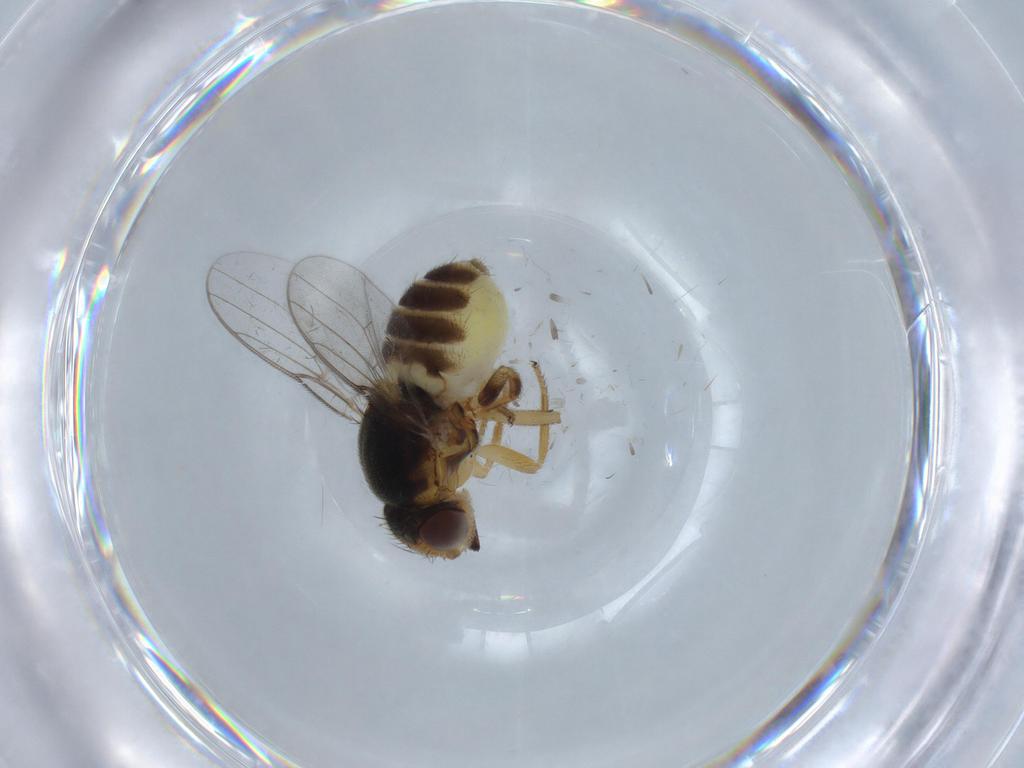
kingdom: Animalia
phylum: Arthropoda
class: Insecta
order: Diptera
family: Chloropidae
